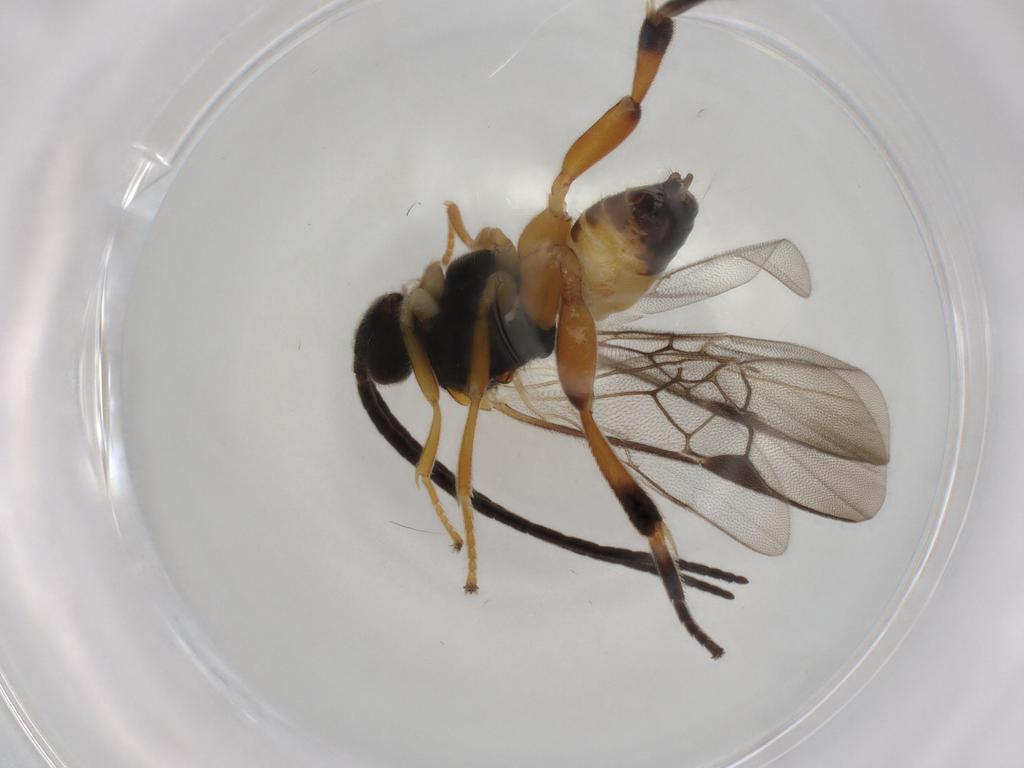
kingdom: Animalia
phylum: Arthropoda
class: Insecta
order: Hymenoptera
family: Braconidae
